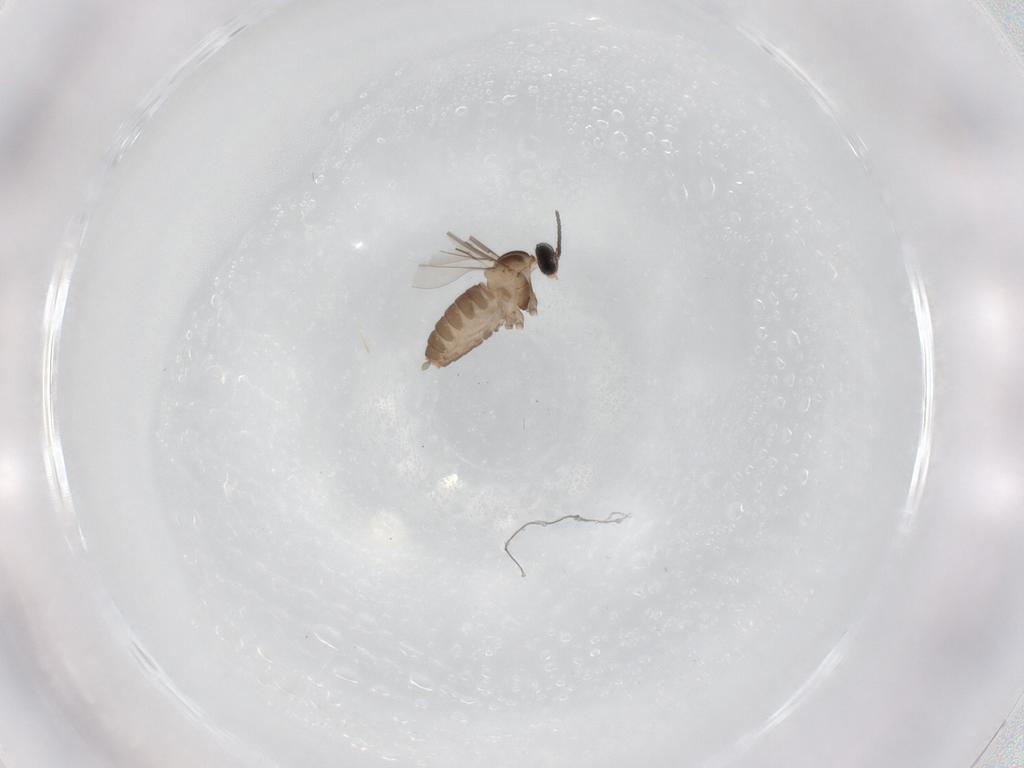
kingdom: Animalia
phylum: Arthropoda
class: Insecta
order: Diptera
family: Cecidomyiidae
